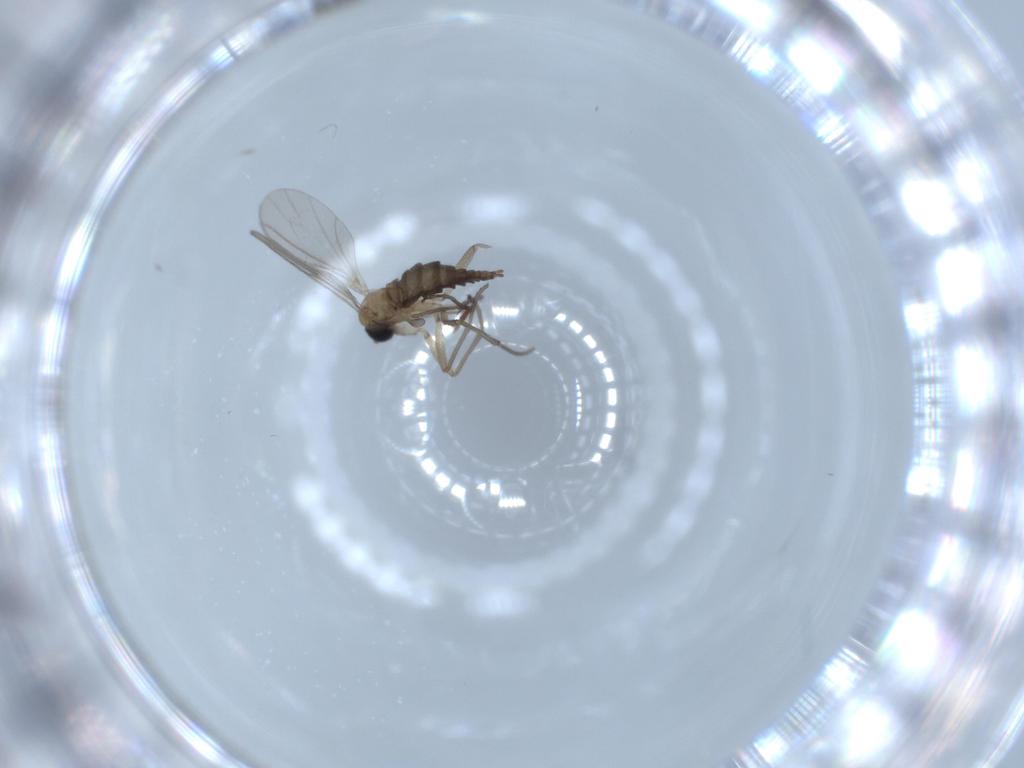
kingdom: Animalia
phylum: Arthropoda
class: Insecta
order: Diptera
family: Sciaridae
